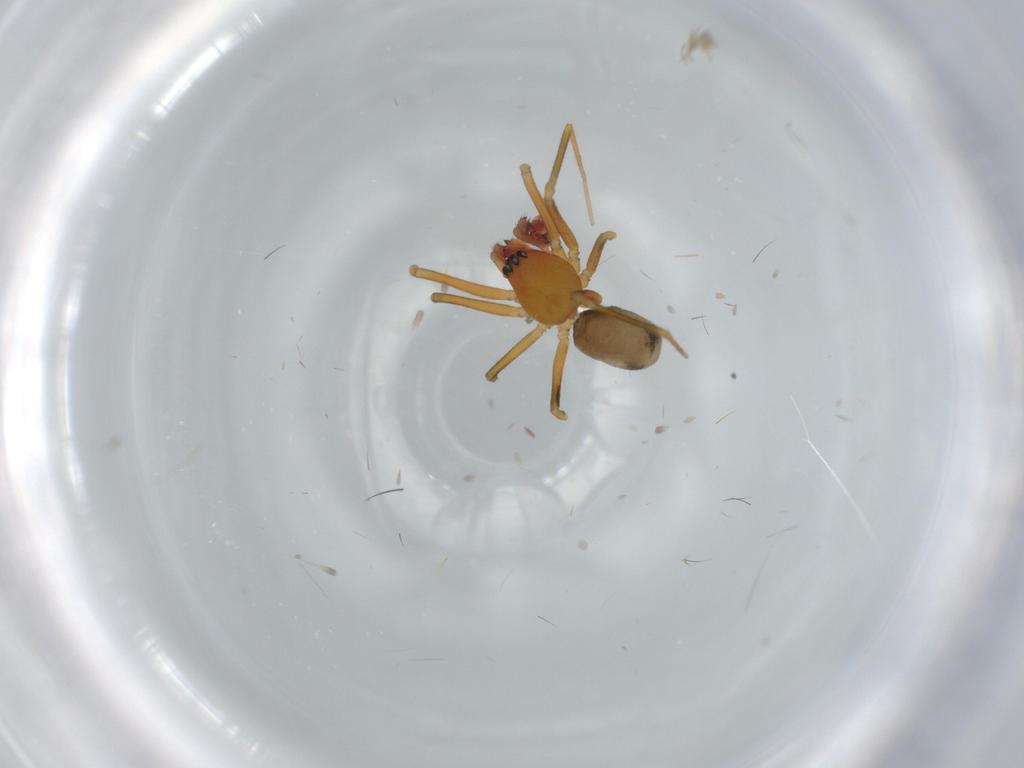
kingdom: Animalia
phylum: Arthropoda
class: Arachnida
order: Araneae
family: Linyphiidae
